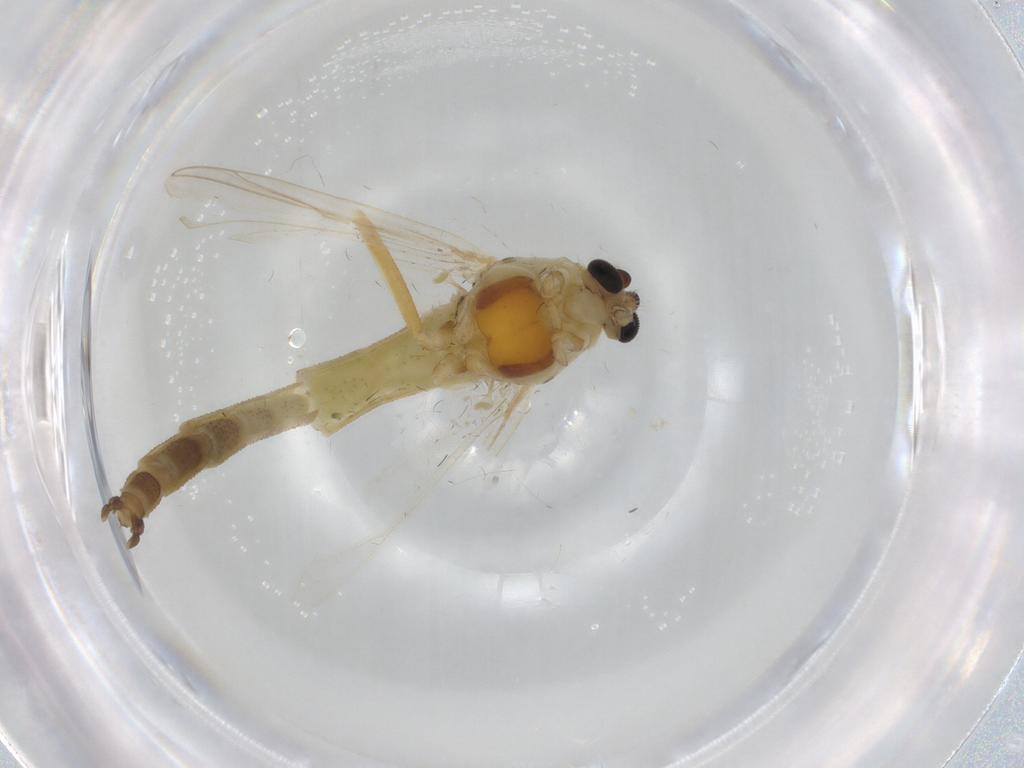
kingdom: Animalia
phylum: Arthropoda
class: Insecta
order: Diptera
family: Chironomidae
